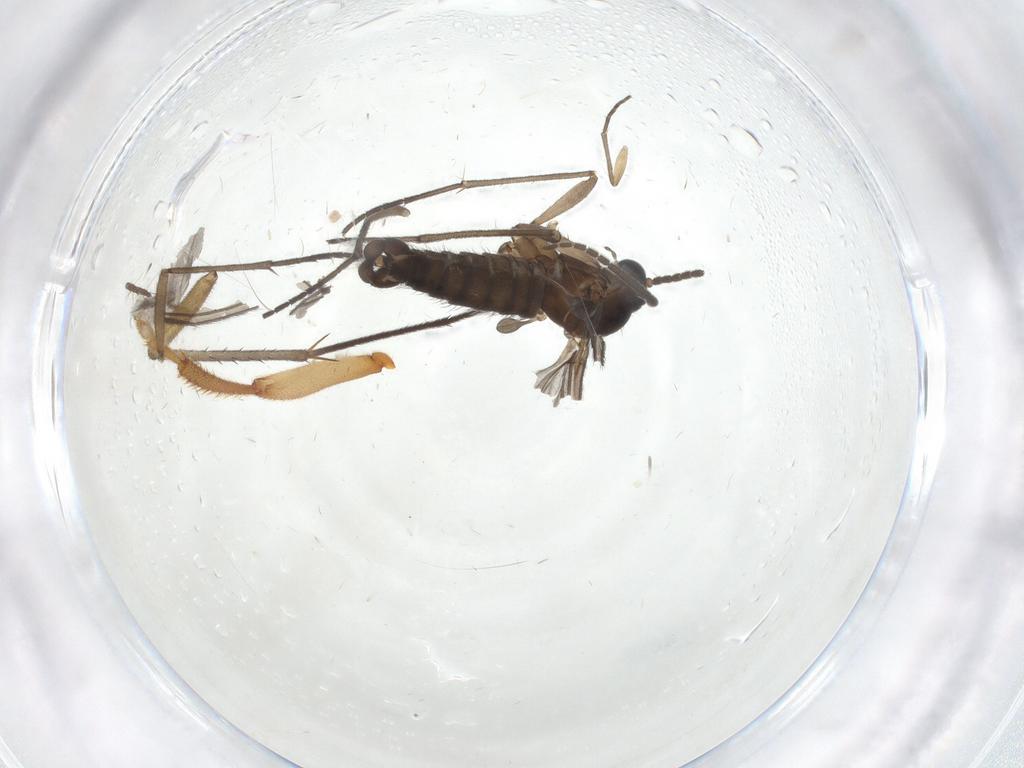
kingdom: Animalia
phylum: Arthropoda
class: Insecta
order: Diptera
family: Sciaridae
